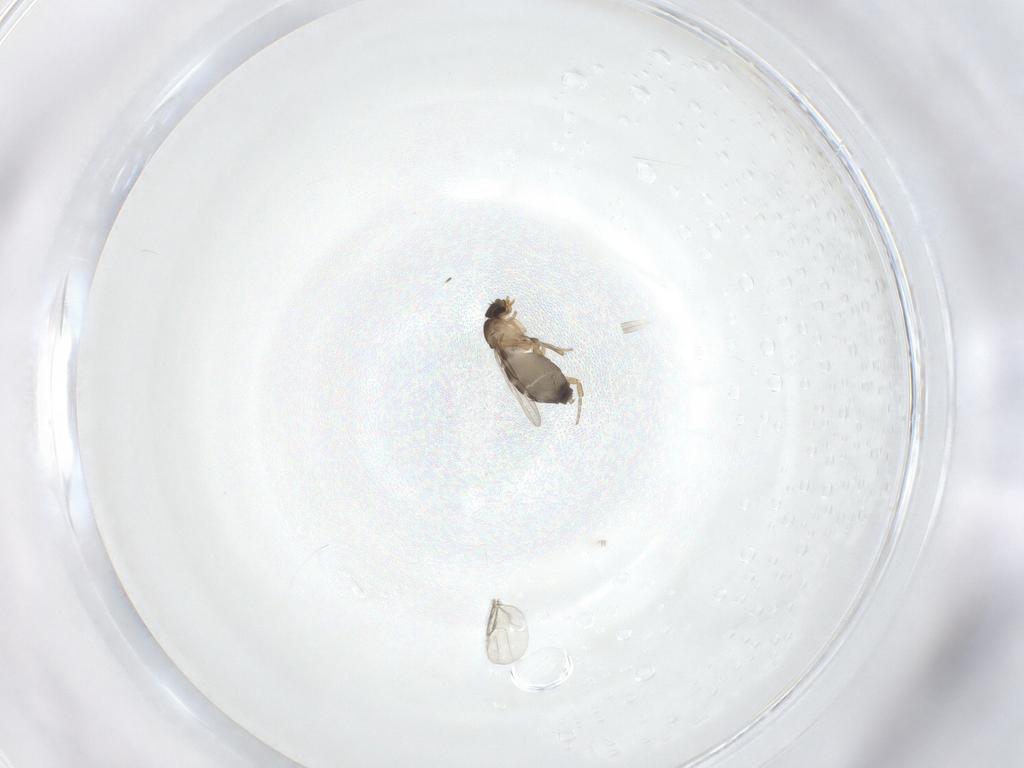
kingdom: Animalia
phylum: Arthropoda
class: Insecta
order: Diptera
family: Phoridae
